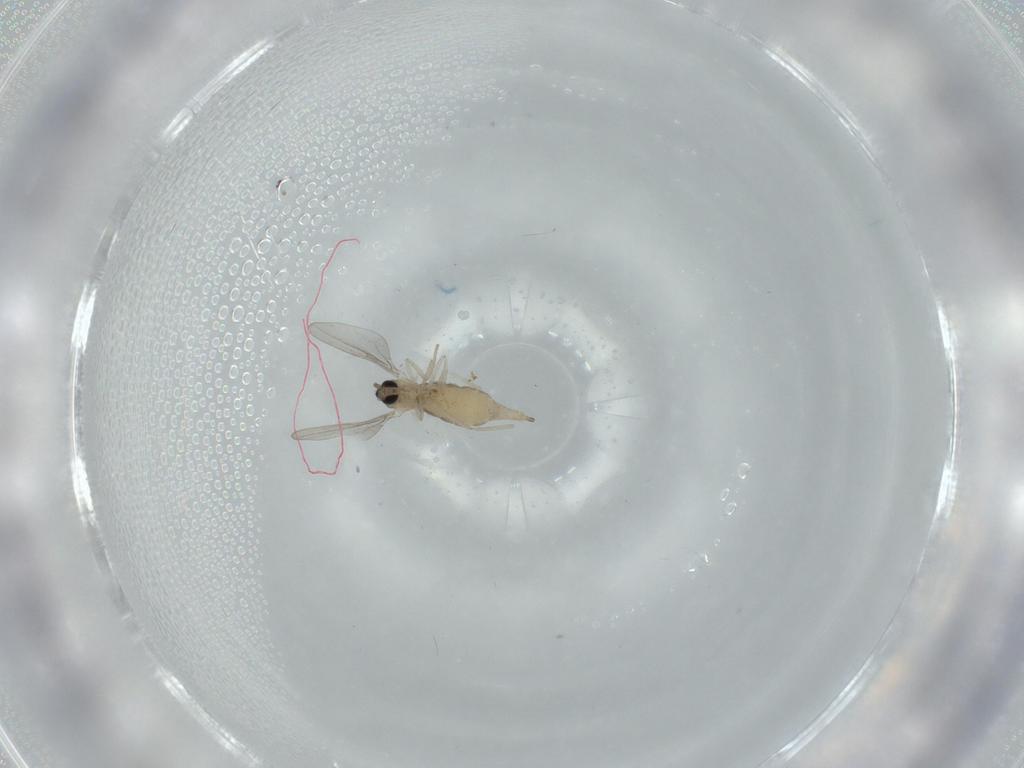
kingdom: Animalia
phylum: Arthropoda
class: Insecta
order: Diptera
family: Cecidomyiidae
